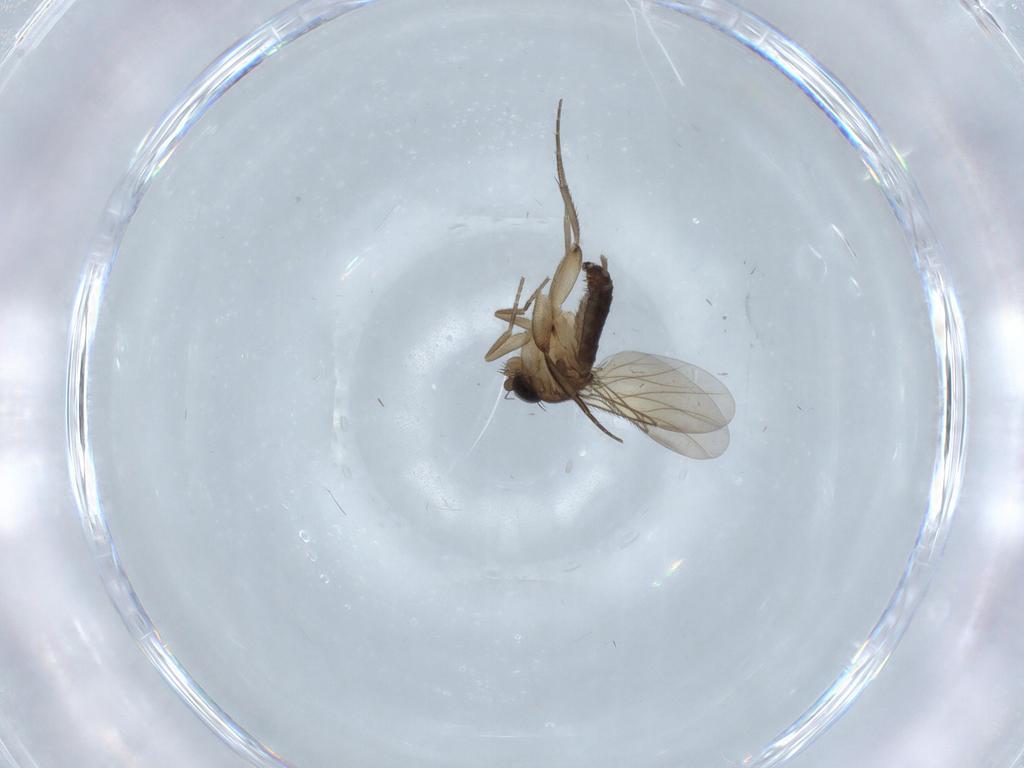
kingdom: Animalia
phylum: Arthropoda
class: Insecta
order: Diptera
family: Phoridae
